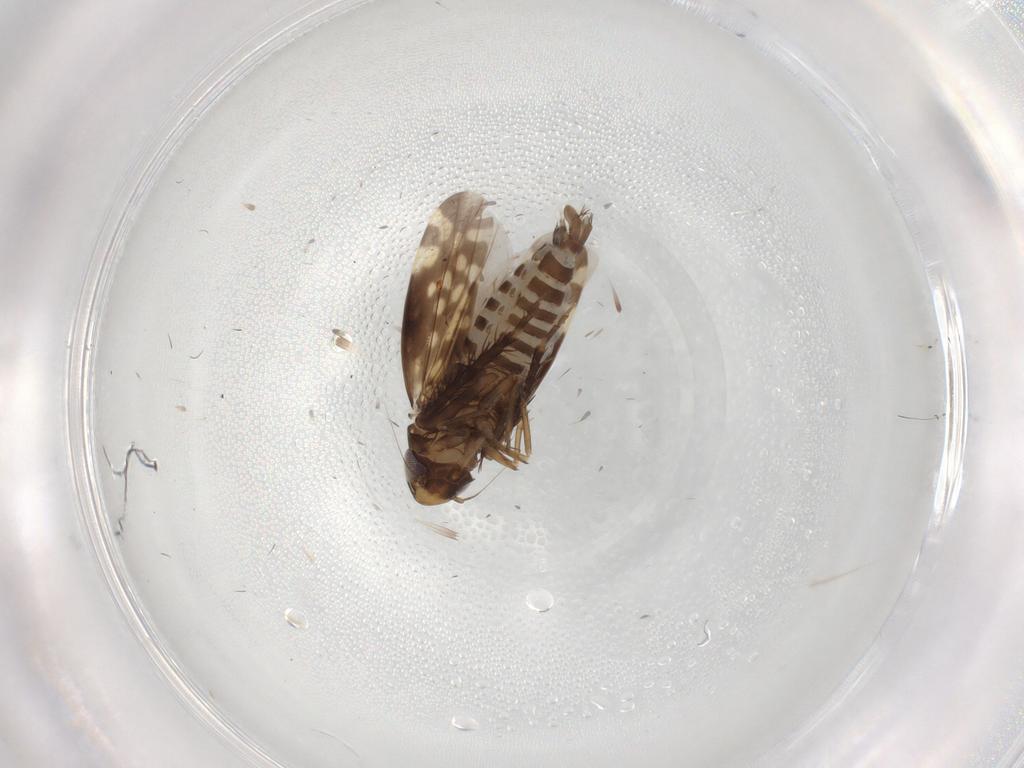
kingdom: Animalia
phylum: Arthropoda
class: Insecta
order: Hemiptera
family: Cicadellidae
